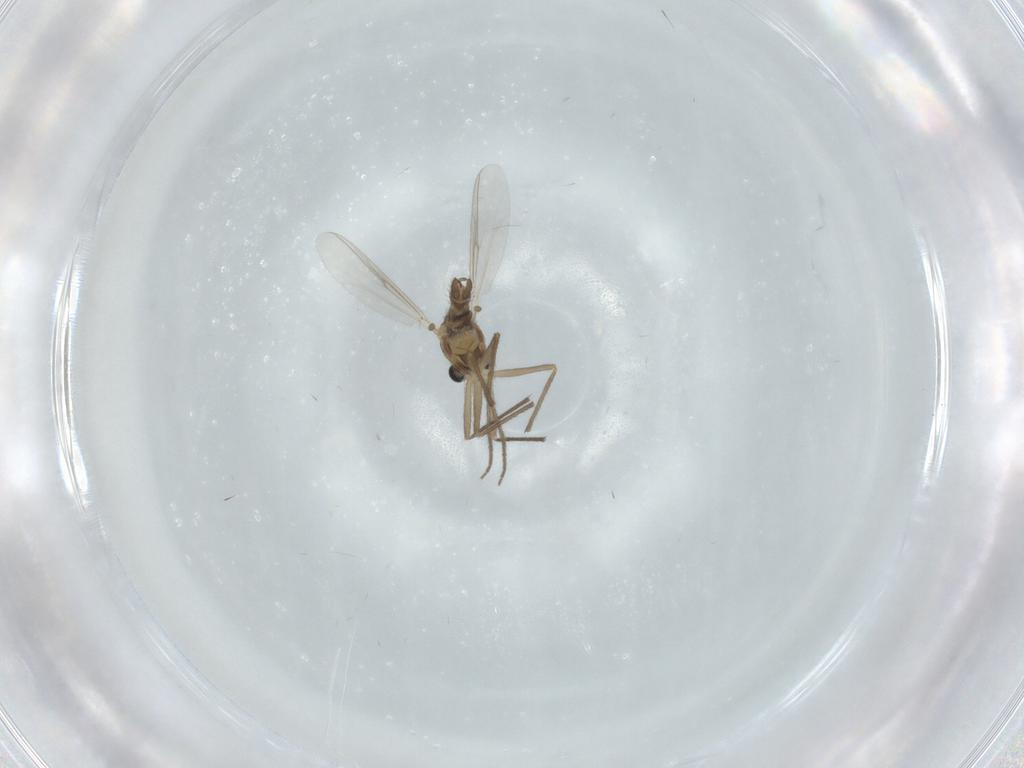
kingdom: Animalia
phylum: Arthropoda
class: Insecta
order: Diptera
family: Chironomidae
